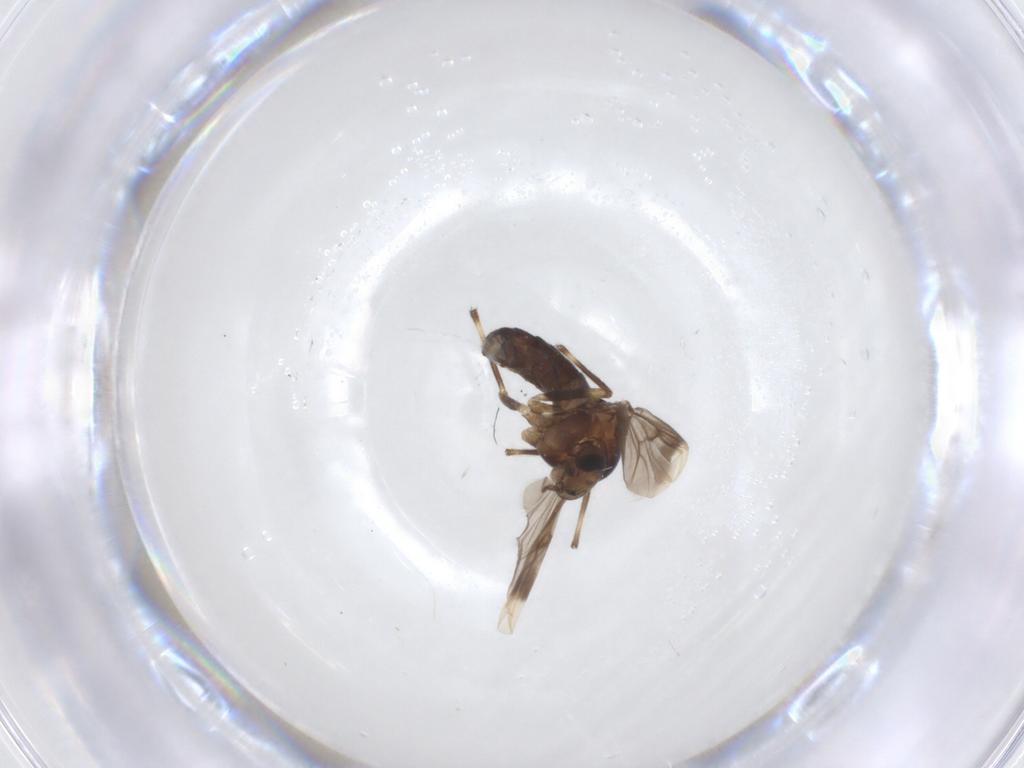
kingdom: Animalia
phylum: Arthropoda
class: Insecta
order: Diptera
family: Chironomidae
